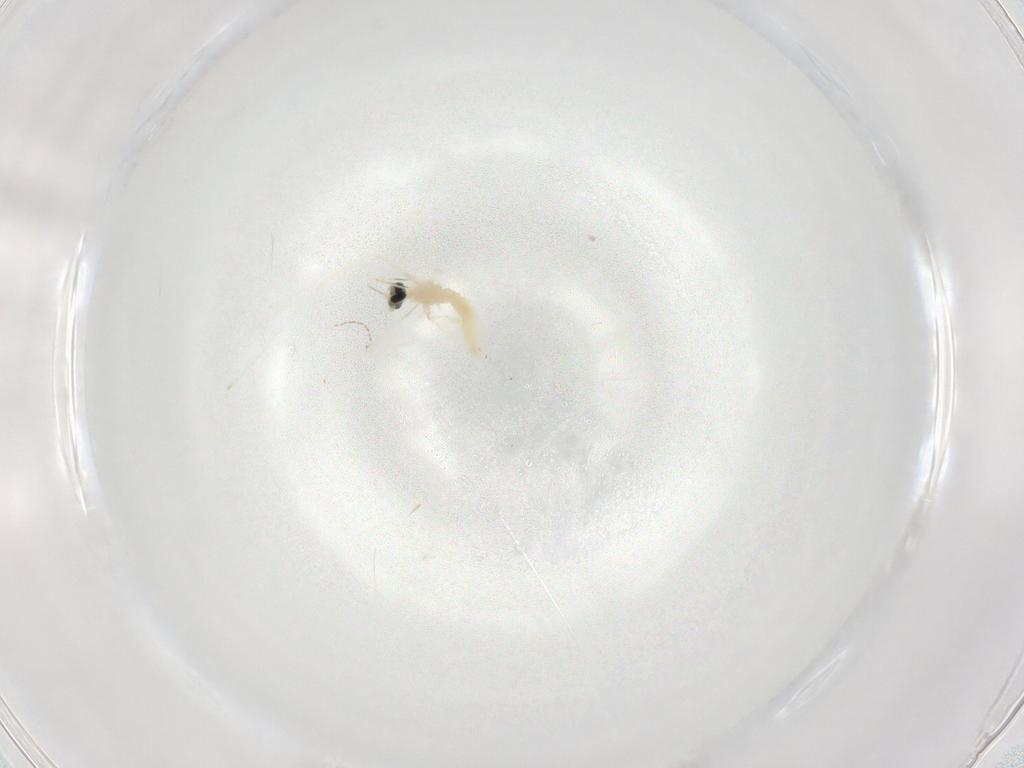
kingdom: Animalia
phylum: Arthropoda
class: Insecta
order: Diptera
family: Cecidomyiidae
